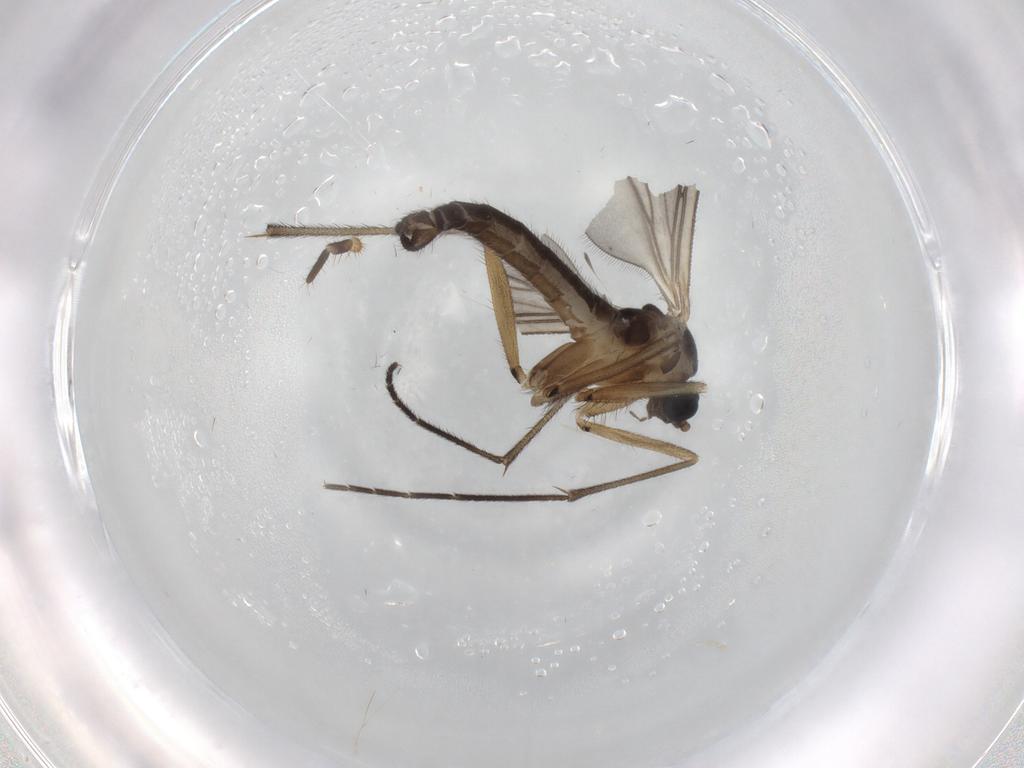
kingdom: Animalia
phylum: Arthropoda
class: Insecta
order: Diptera
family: Sciaridae
